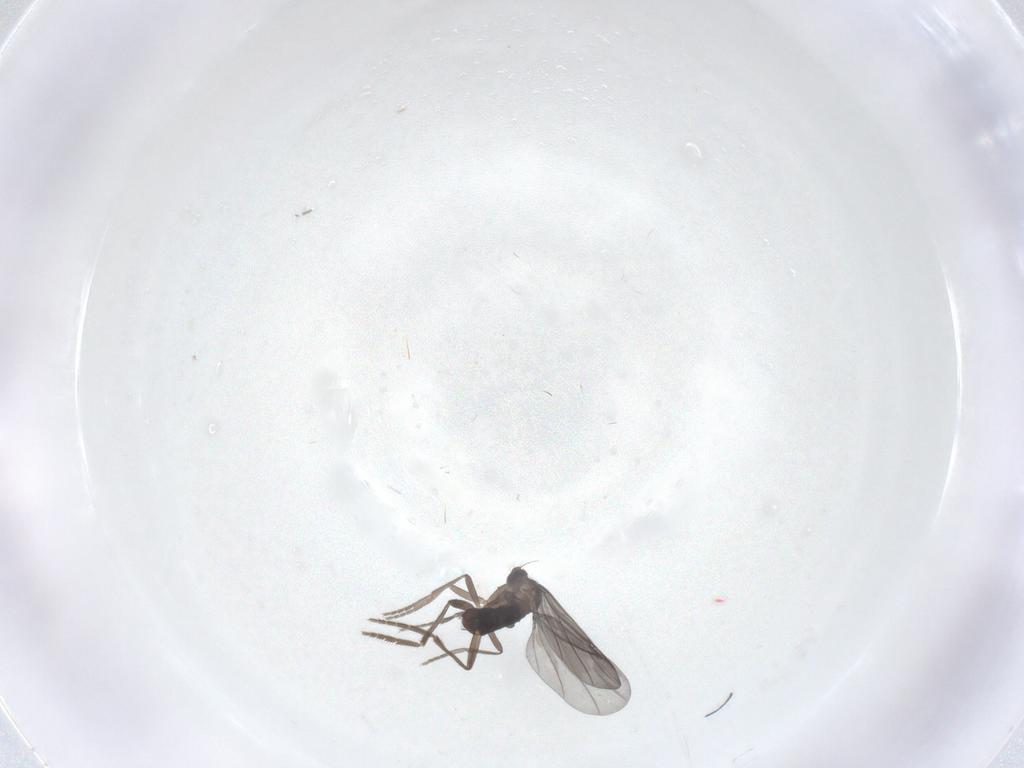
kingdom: Animalia
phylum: Arthropoda
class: Insecta
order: Diptera
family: Phoridae
